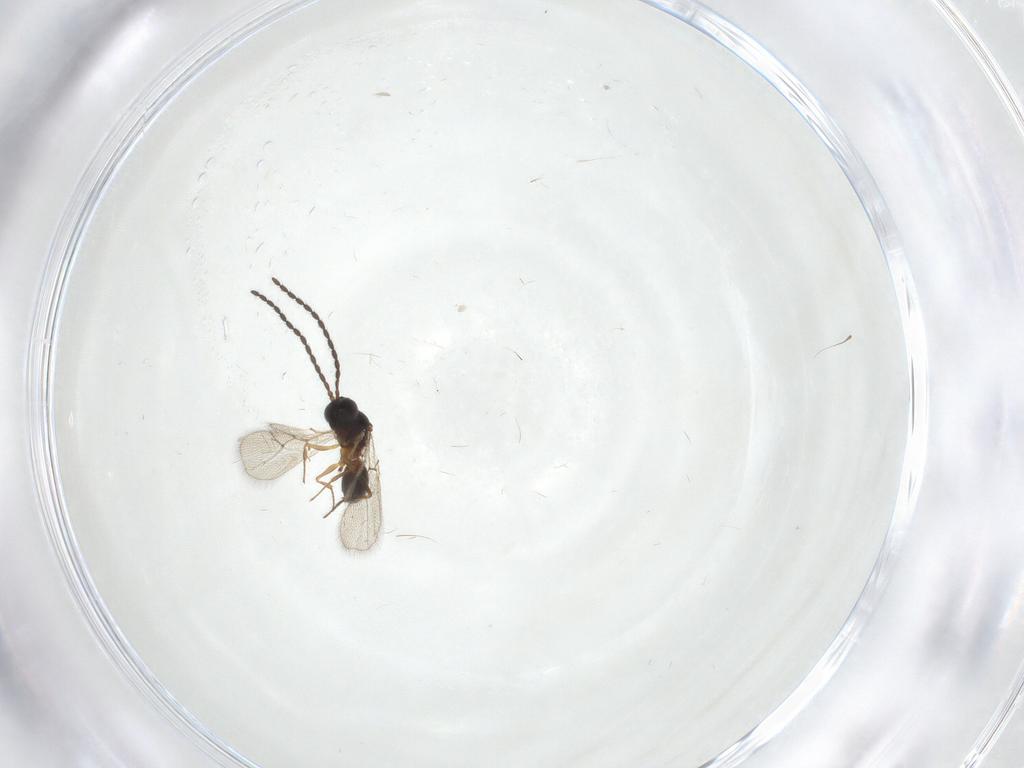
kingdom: Animalia
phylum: Arthropoda
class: Insecta
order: Hymenoptera
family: Figitidae
